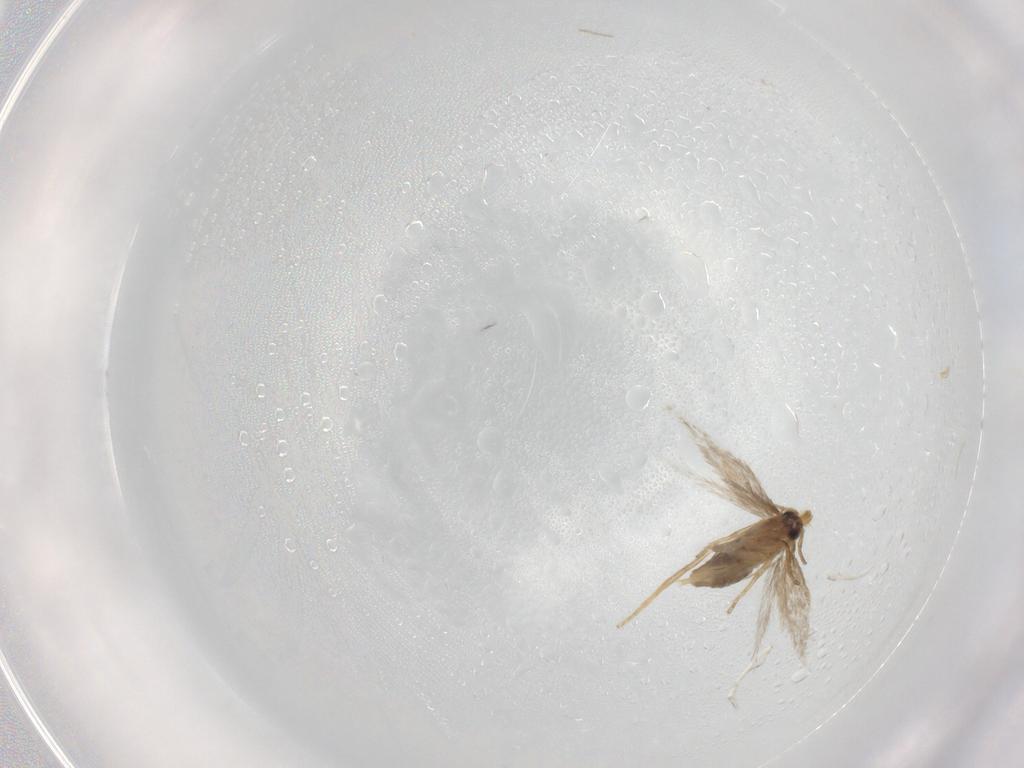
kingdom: Animalia
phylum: Arthropoda
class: Insecta
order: Lepidoptera
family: Nepticulidae
